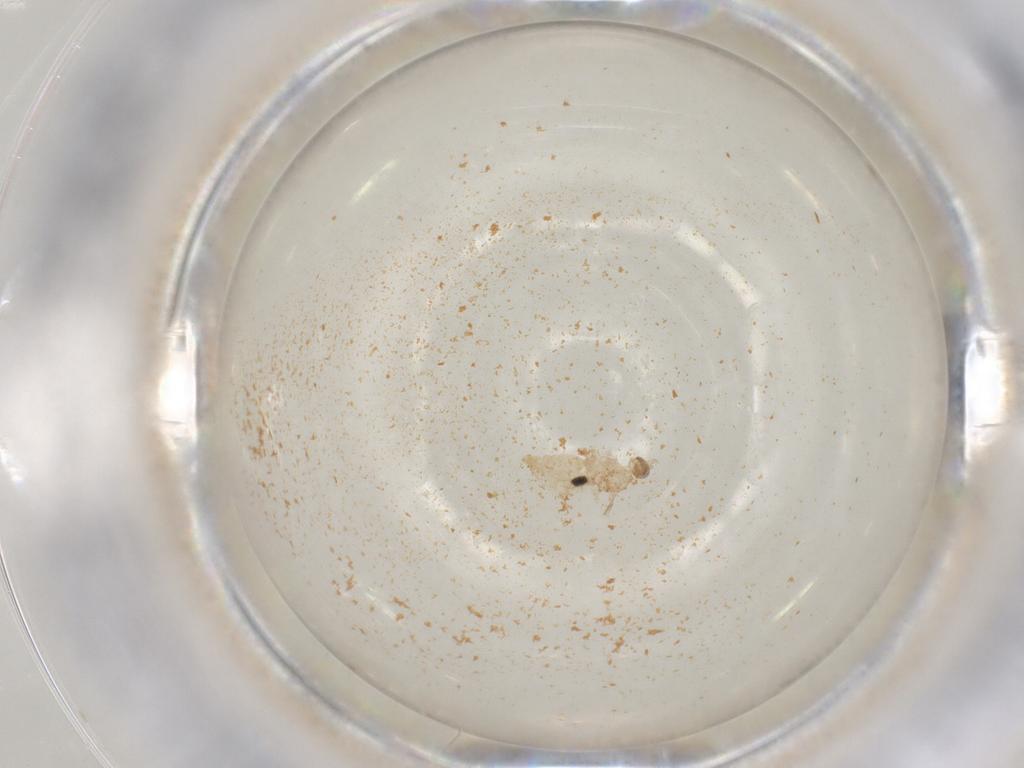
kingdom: Animalia
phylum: Arthropoda
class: Insecta
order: Diptera
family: Cecidomyiidae
